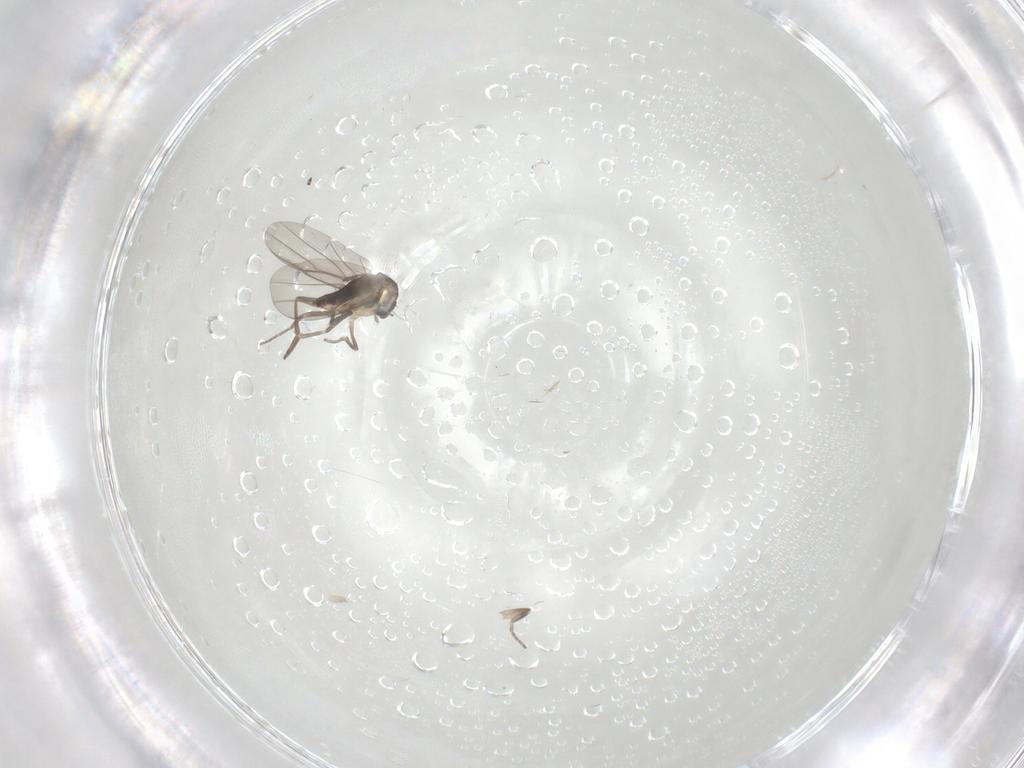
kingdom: Animalia
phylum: Arthropoda
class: Insecta
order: Diptera
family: Phoridae
